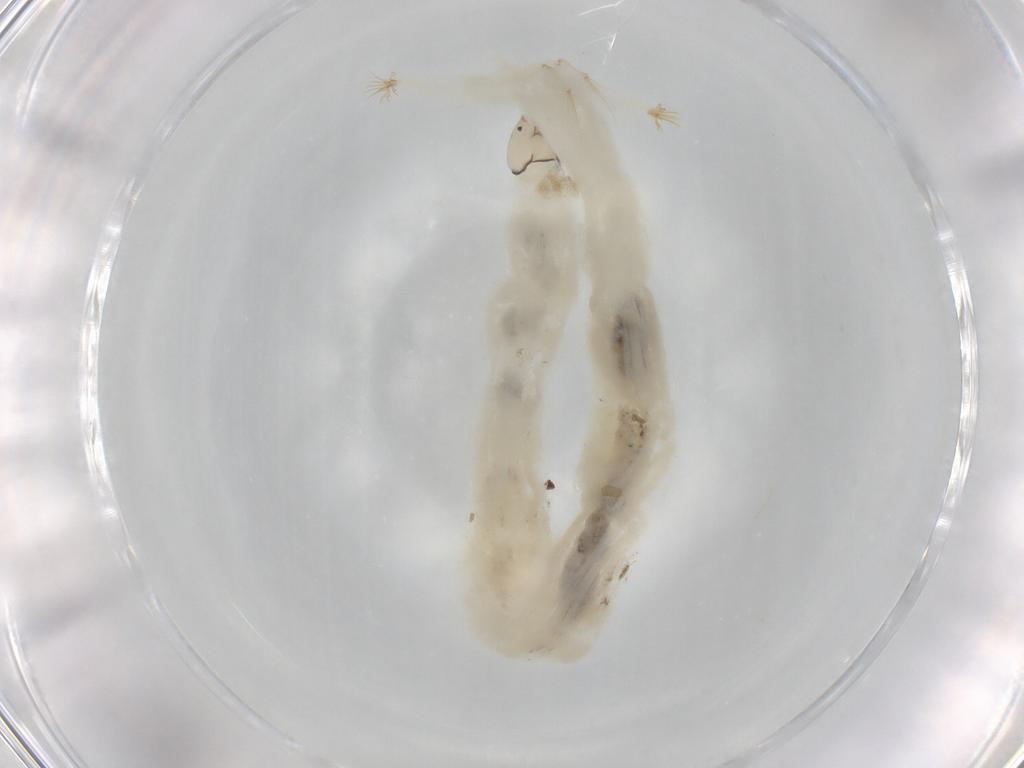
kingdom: Animalia
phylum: Arthropoda
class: Insecta
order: Diptera
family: Chironomidae
